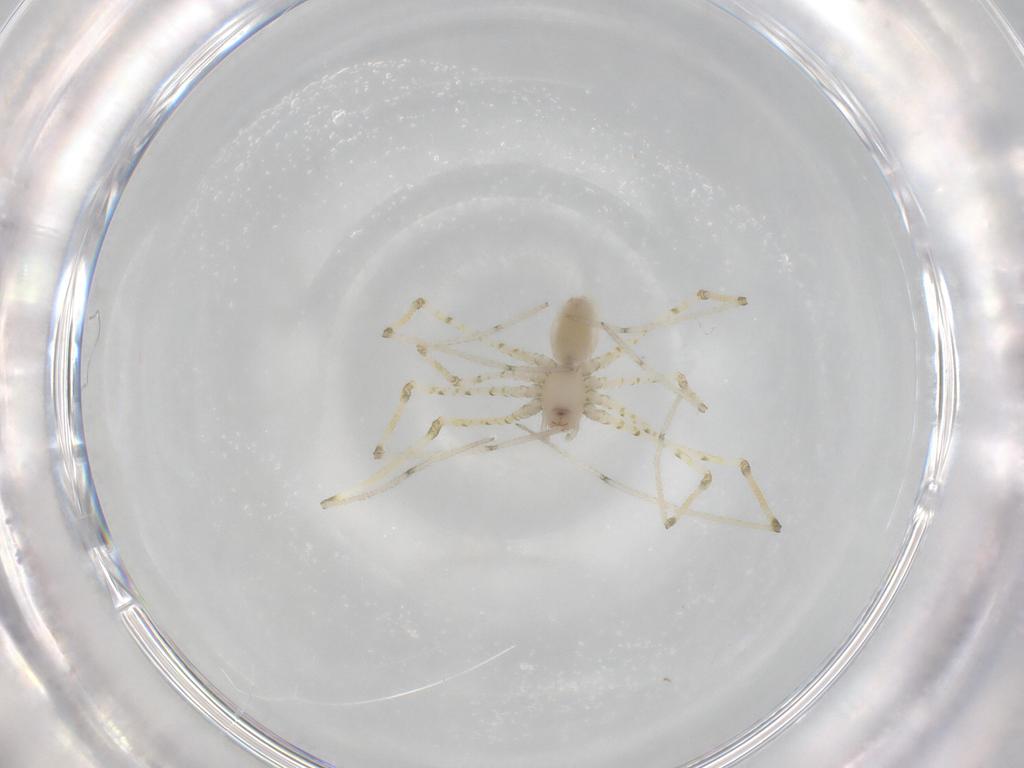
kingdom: Animalia
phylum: Arthropoda
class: Arachnida
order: Araneae
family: Pholcidae
